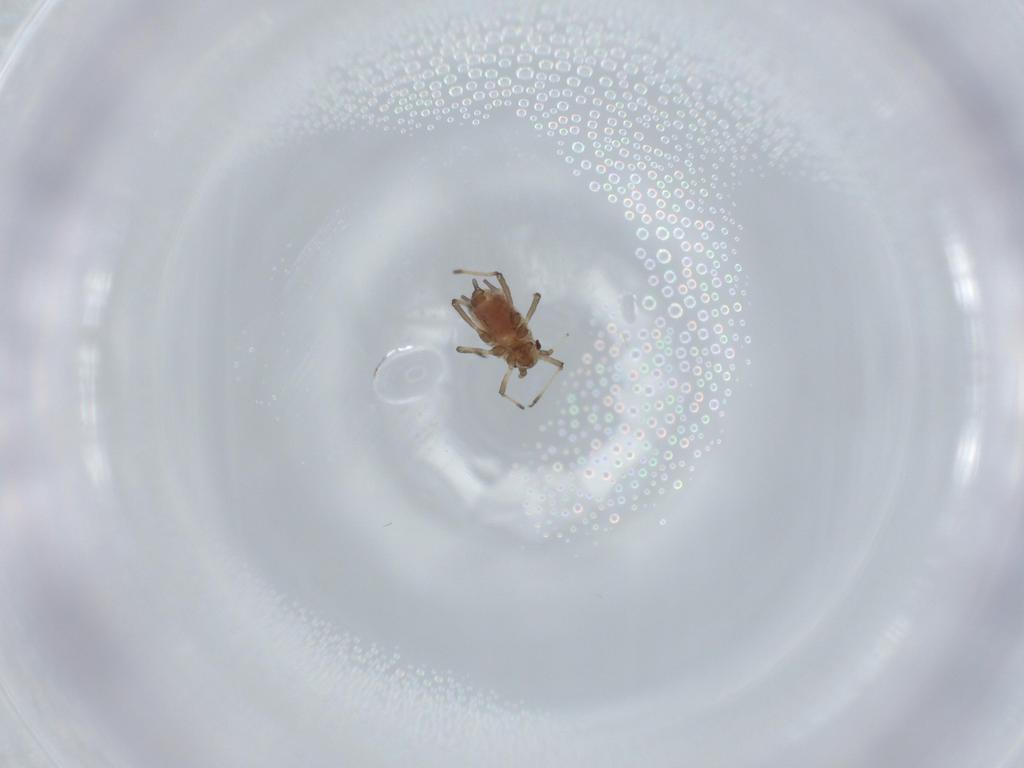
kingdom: Animalia
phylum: Arthropoda
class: Insecta
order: Hemiptera
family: Aphididae
